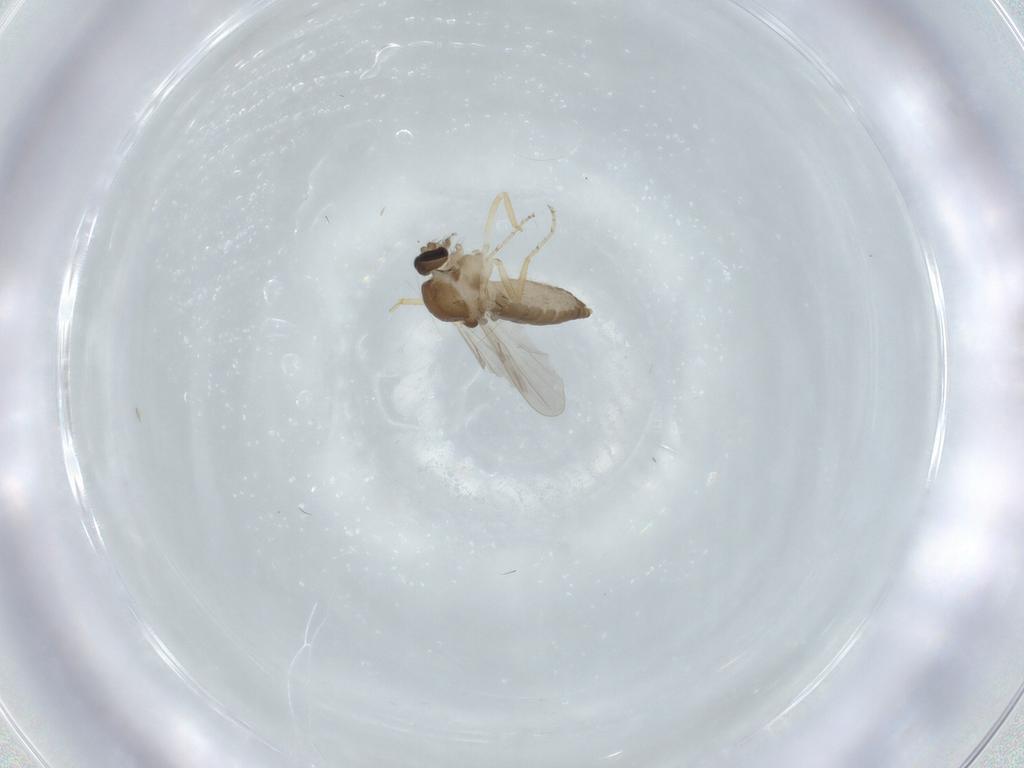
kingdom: Animalia
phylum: Arthropoda
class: Insecta
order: Diptera
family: Ceratopogonidae
